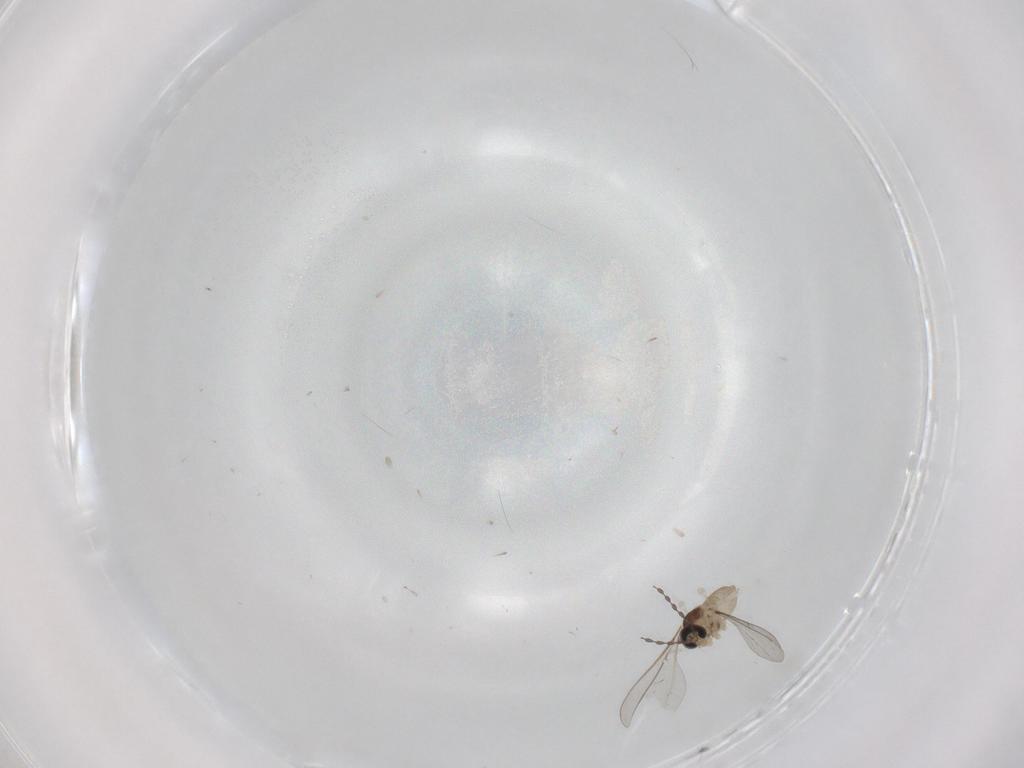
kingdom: Animalia
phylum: Arthropoda
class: Insecta
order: Diptera
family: Cecidomyiidae
